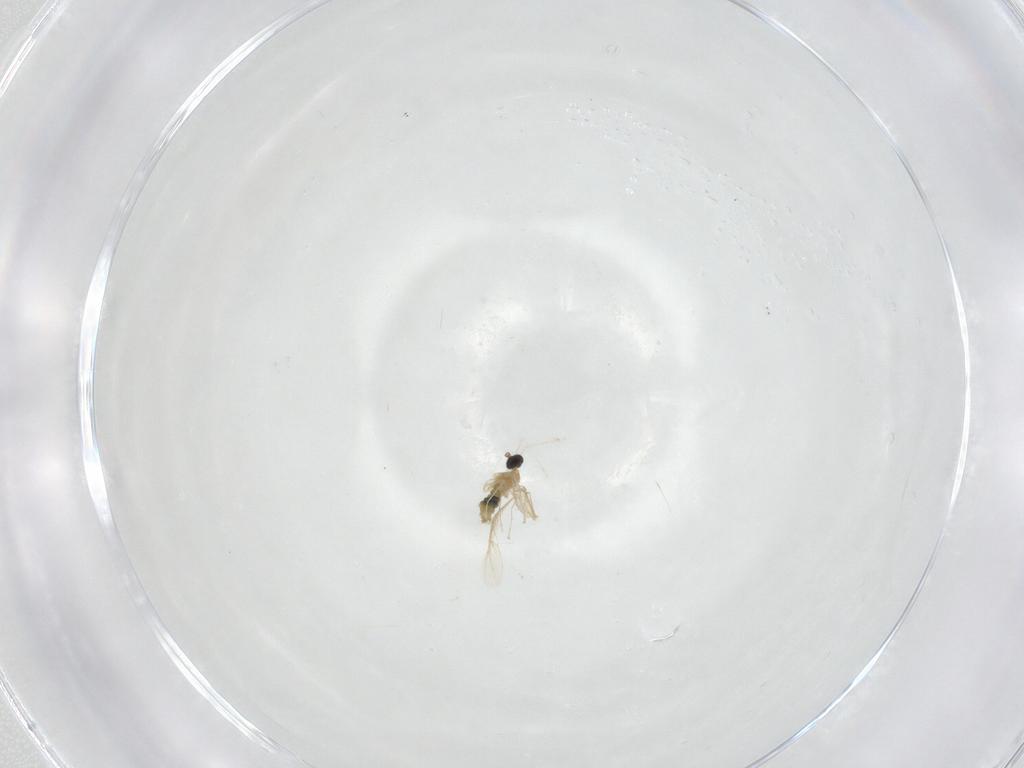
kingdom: Animalia
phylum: Arthropoda
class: Insecta
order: Diptera
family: Cecidomyiidae
